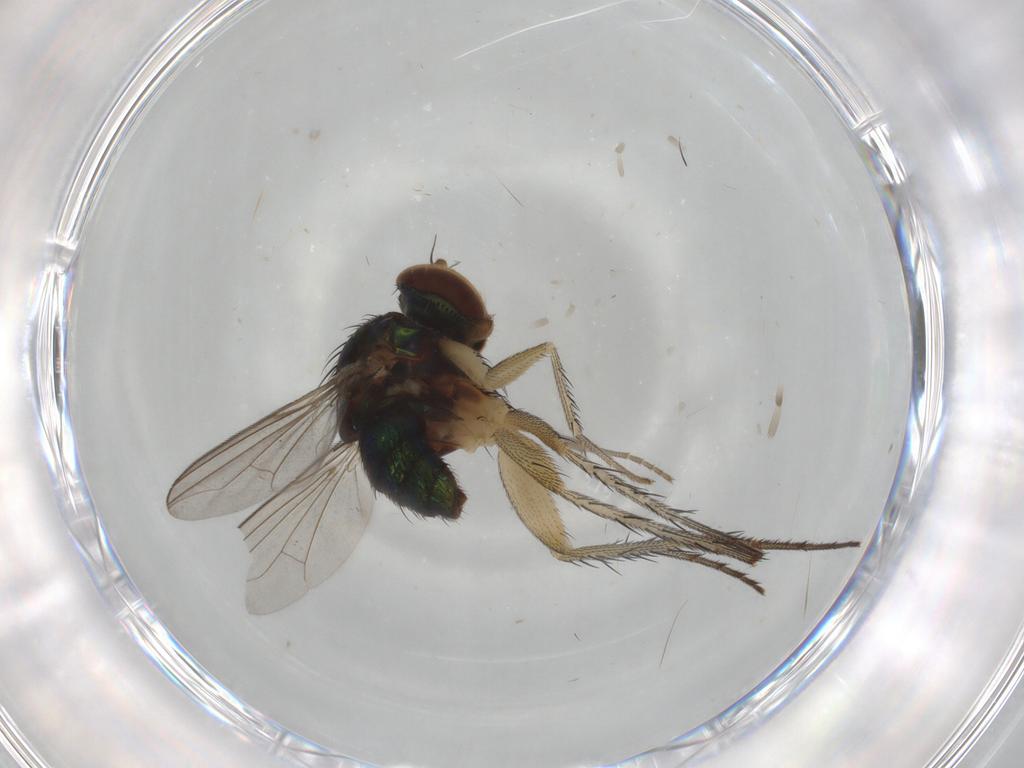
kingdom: Animalia
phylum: Arthropoda
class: Insecta
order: Diptera
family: Dolichopodidae
